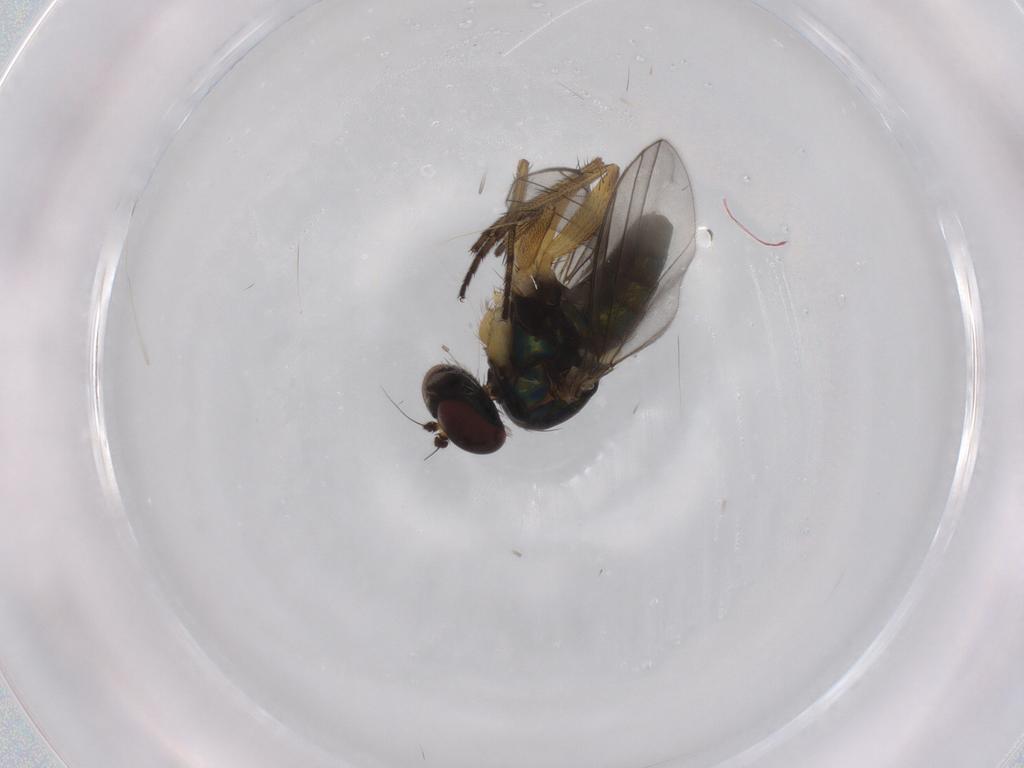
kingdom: Animalia
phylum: Arthropoda
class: Insecta
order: Diptera
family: Dolichopodidae
